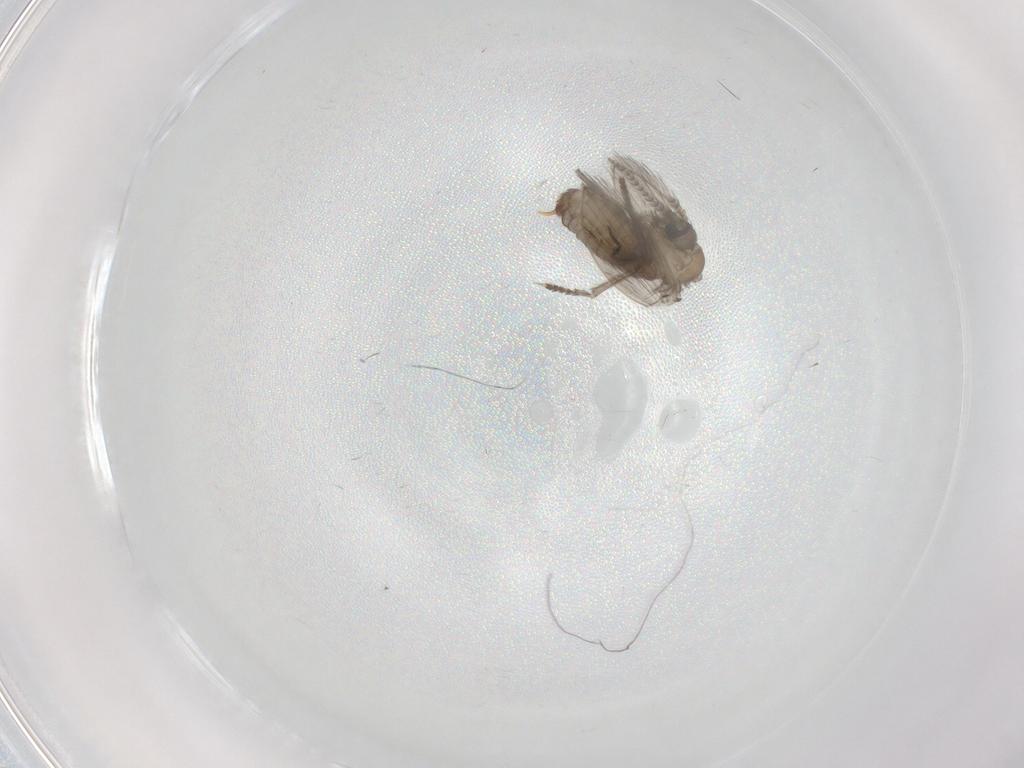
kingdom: Animalia
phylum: Arthropoda
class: Insecta
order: Diptera
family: Psychodidae
